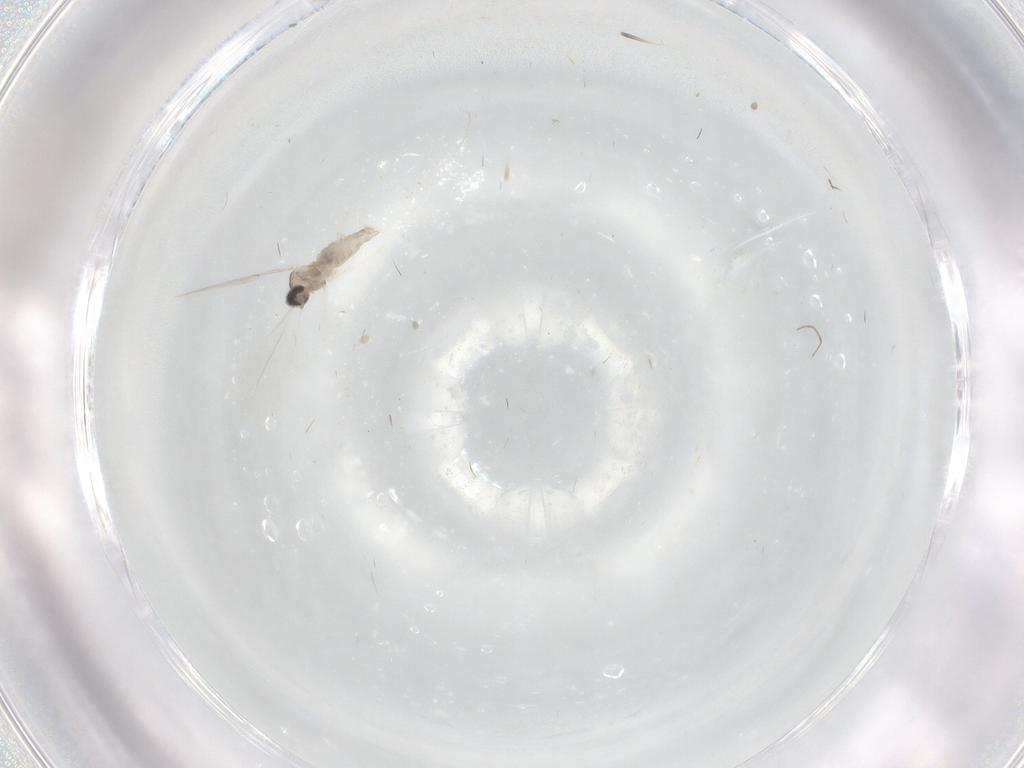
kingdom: Animalia
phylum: Arthropoda
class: Insecta
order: Diptera
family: Cecidomyiidae
